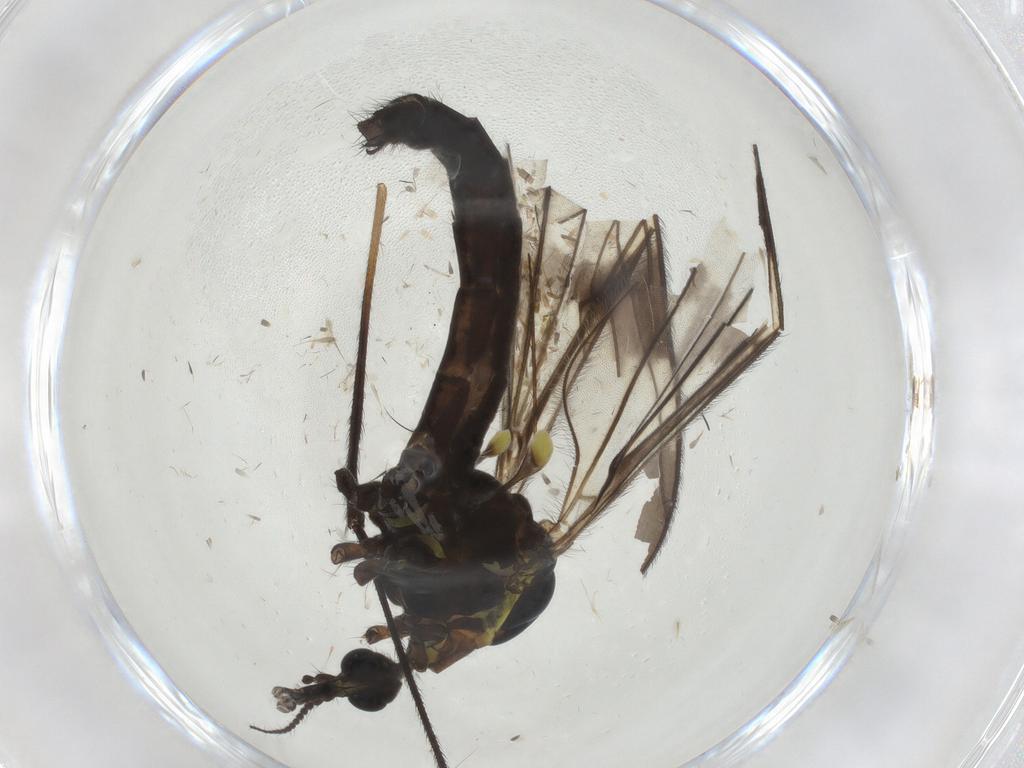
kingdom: Animalia
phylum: Arthropoda
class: Insecta
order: Diptera
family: Limoniidae
